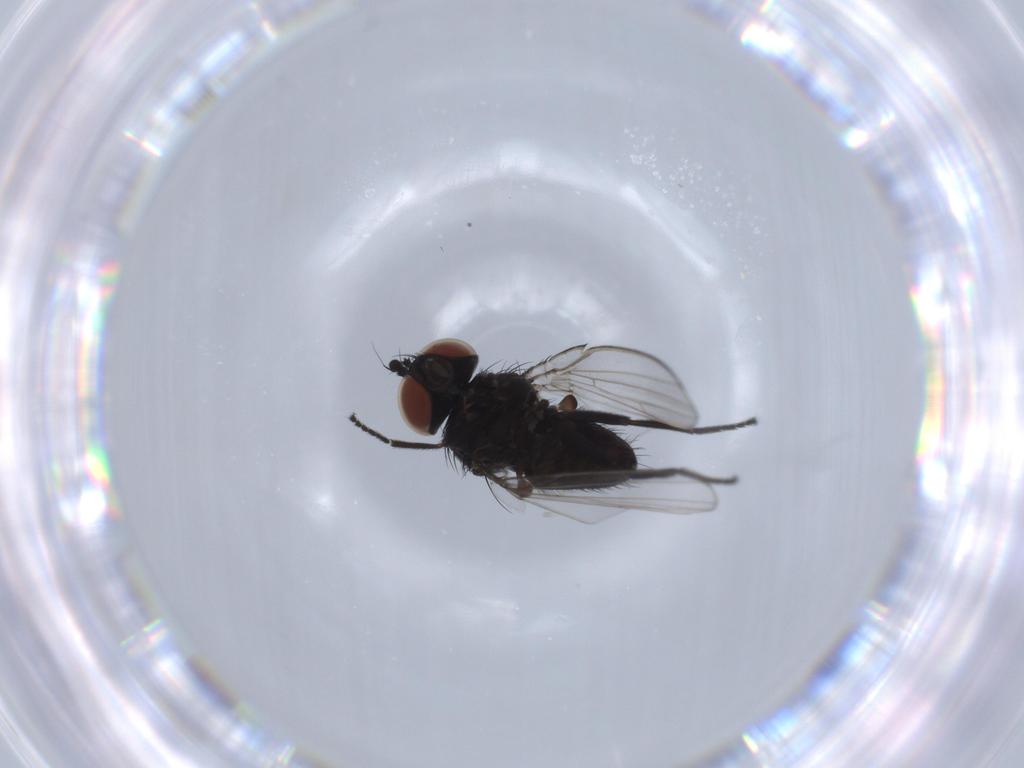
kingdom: Animalia
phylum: Arthropoda
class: Insecta
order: Diptera
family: Milichiidae
